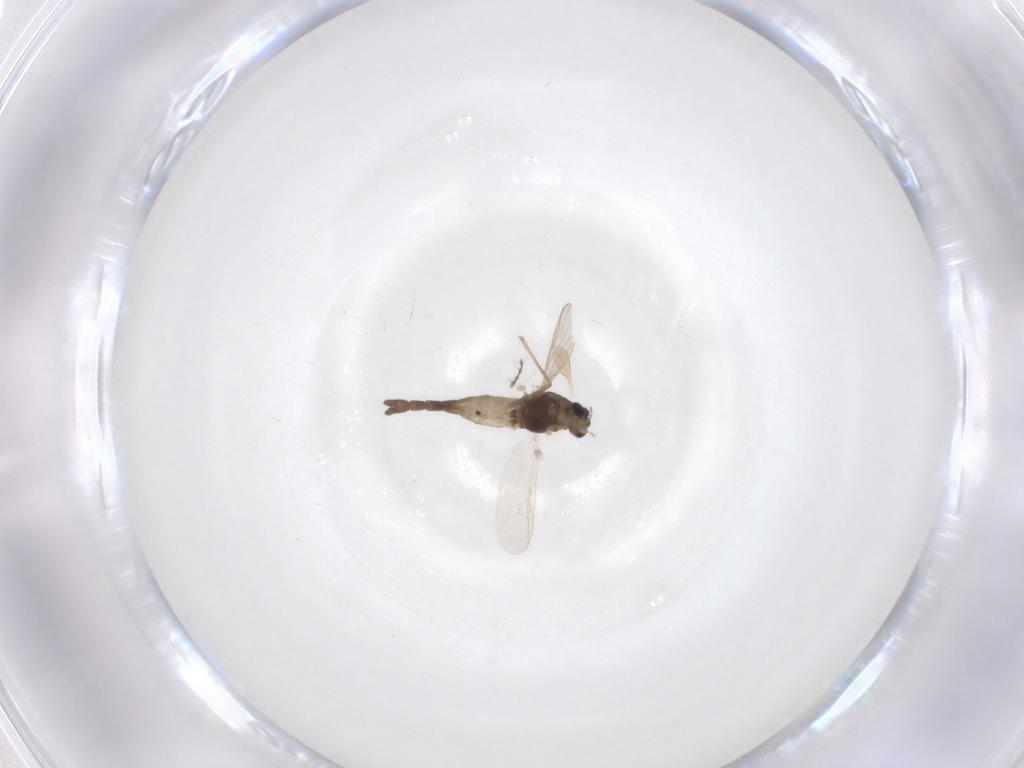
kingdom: Animalia
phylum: Arthropoda
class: Insecta
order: Diptera
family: Chironomidae
